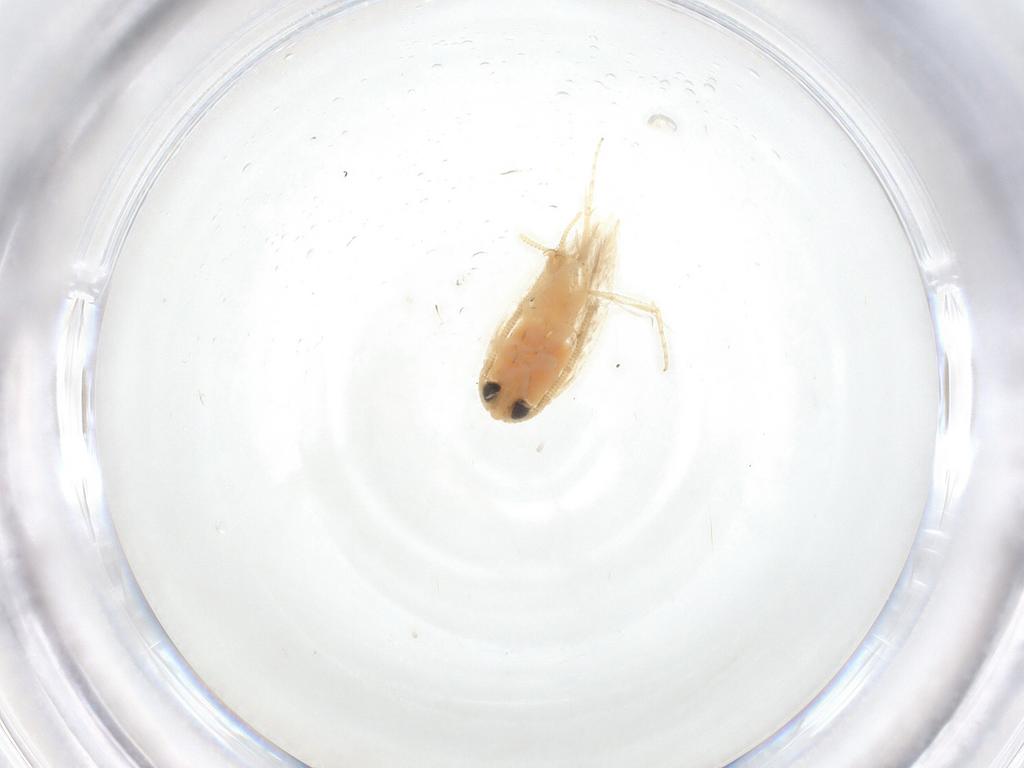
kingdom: Animalia
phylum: Arthropoda
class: Insecta
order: Lepidoptera
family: Opostegidae
